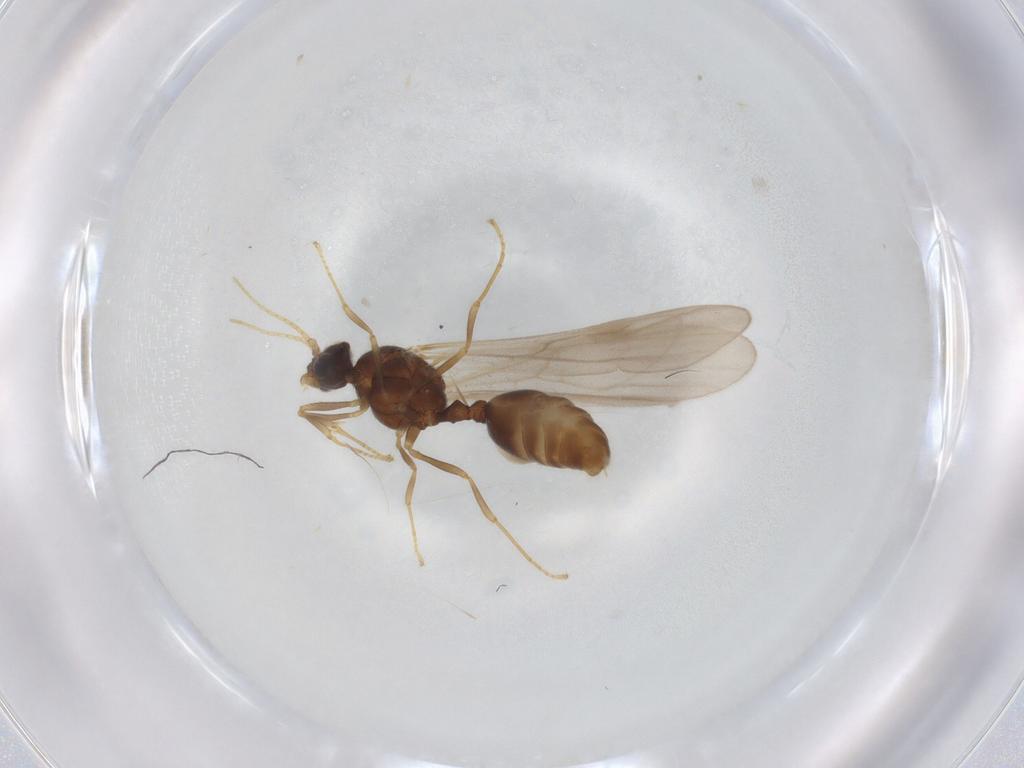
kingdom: Animalia
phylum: Arthropoda
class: Insecta
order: Hymenoptera
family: Formicidae
